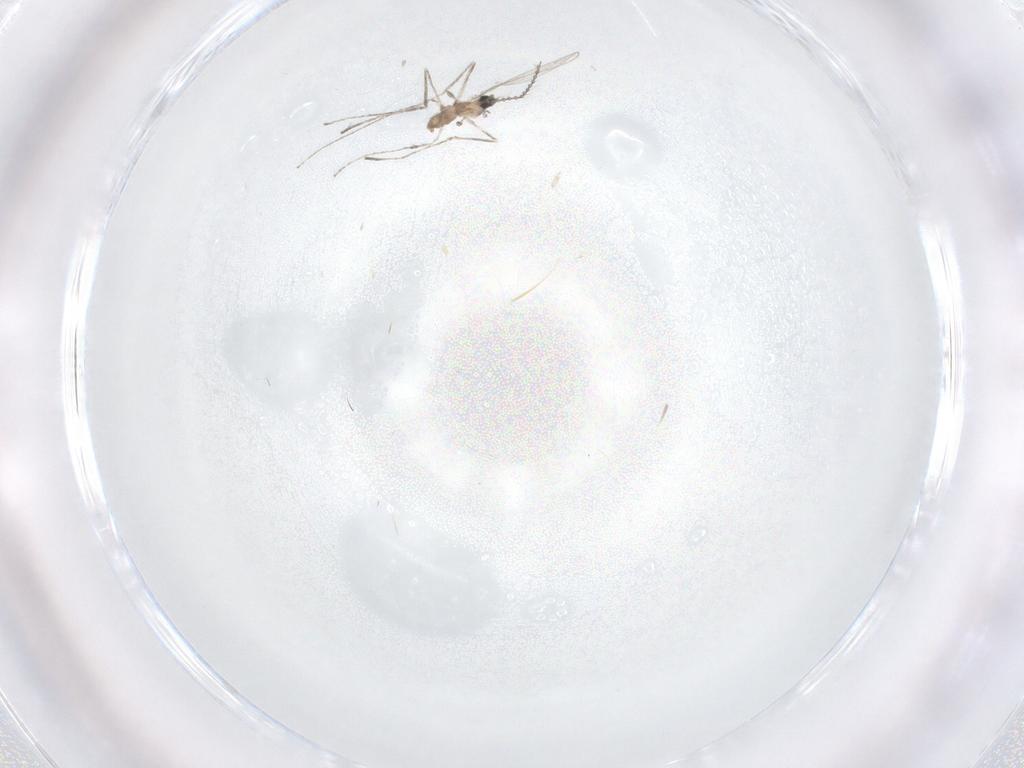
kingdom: Animalia
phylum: Arthropoda
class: Insecta
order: Diptera
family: Cecidomyiidae
